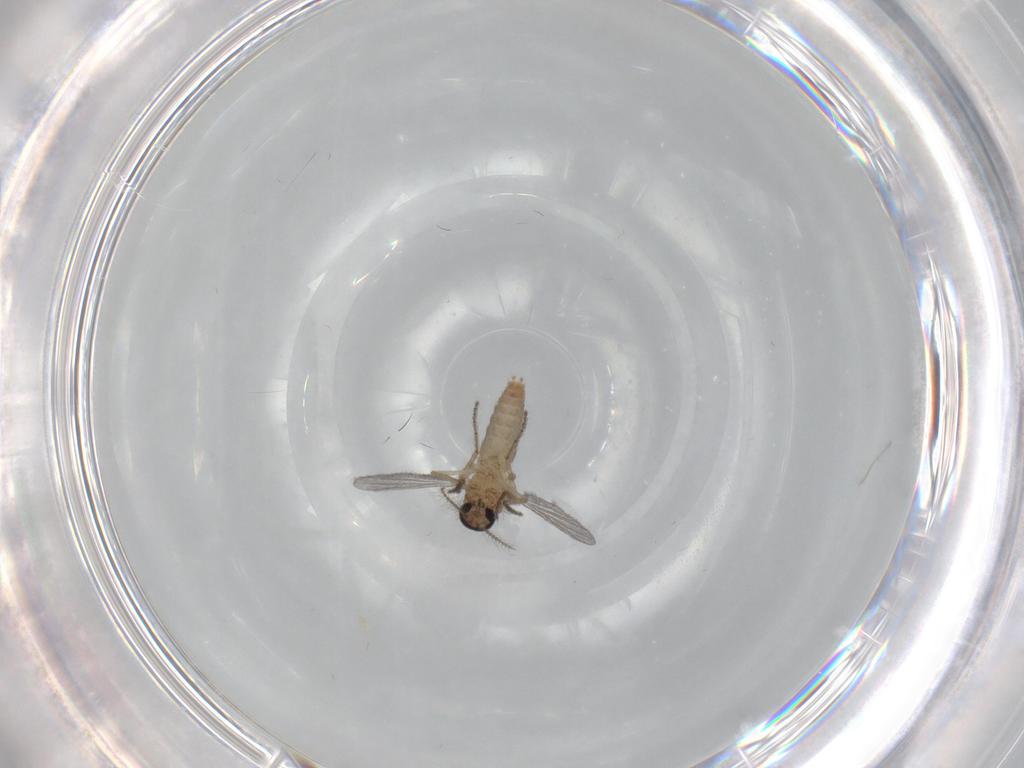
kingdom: Animalia
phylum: Arthropoda
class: Insecta
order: Diptera
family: Ceratopogonidae
